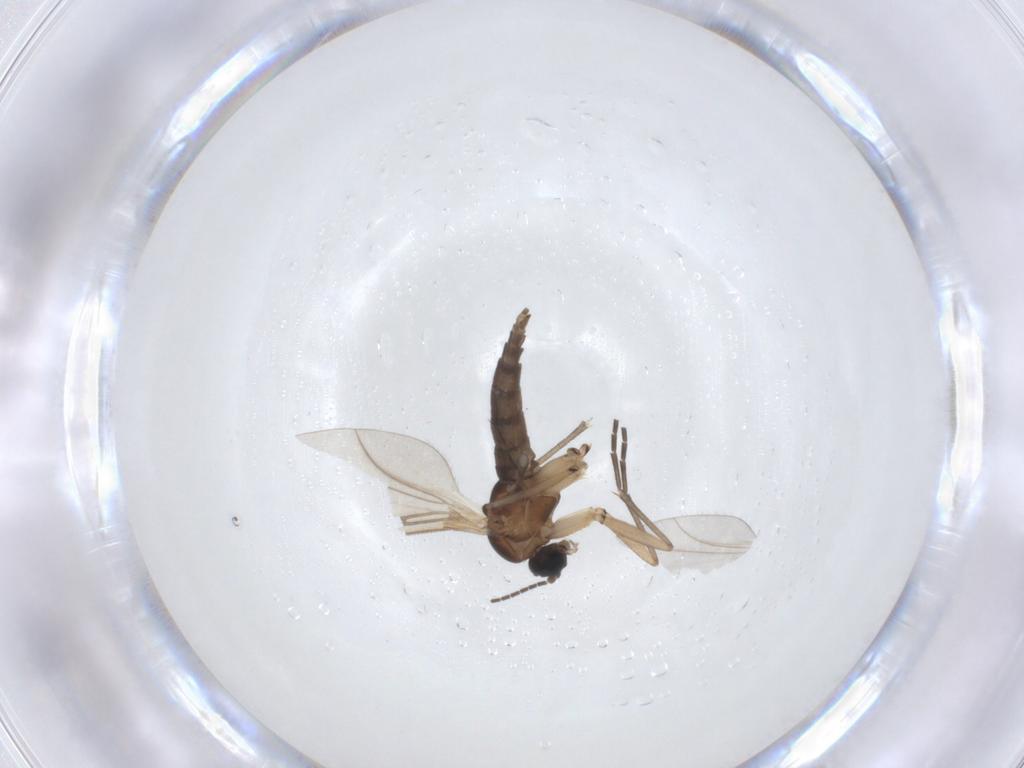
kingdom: Animalia
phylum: Arthropoda
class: Insecta
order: Diptera
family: Sciaridae
